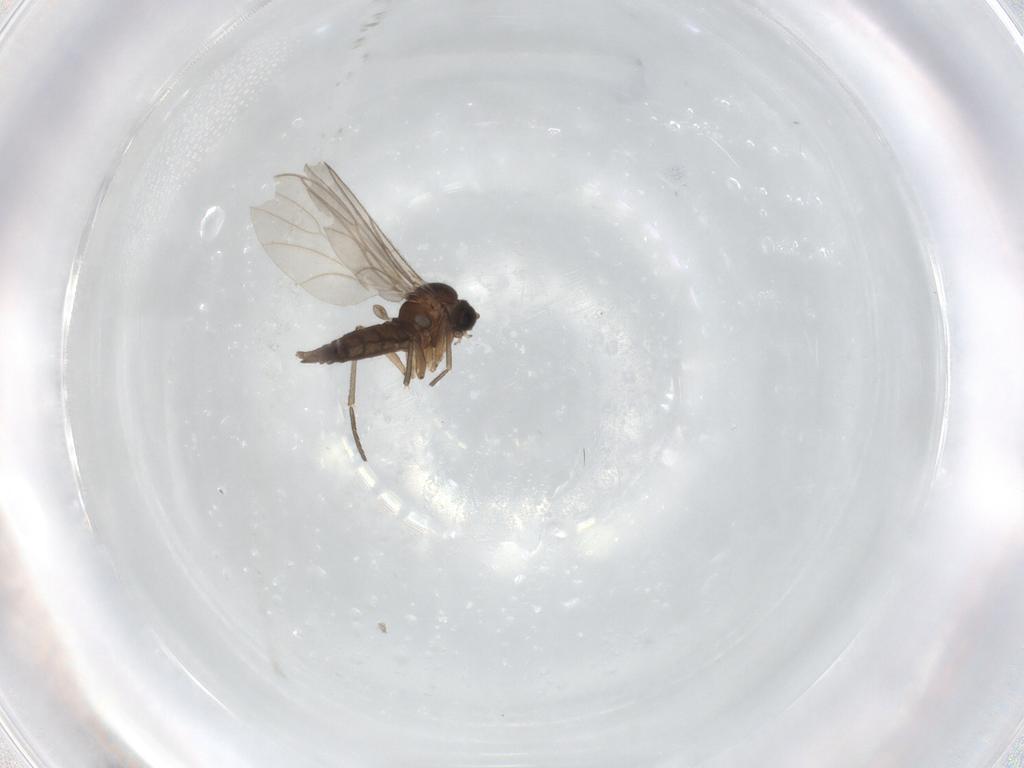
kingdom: Animalia
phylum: Arthropoda
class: Insecta
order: Diptera
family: Sciaridae
